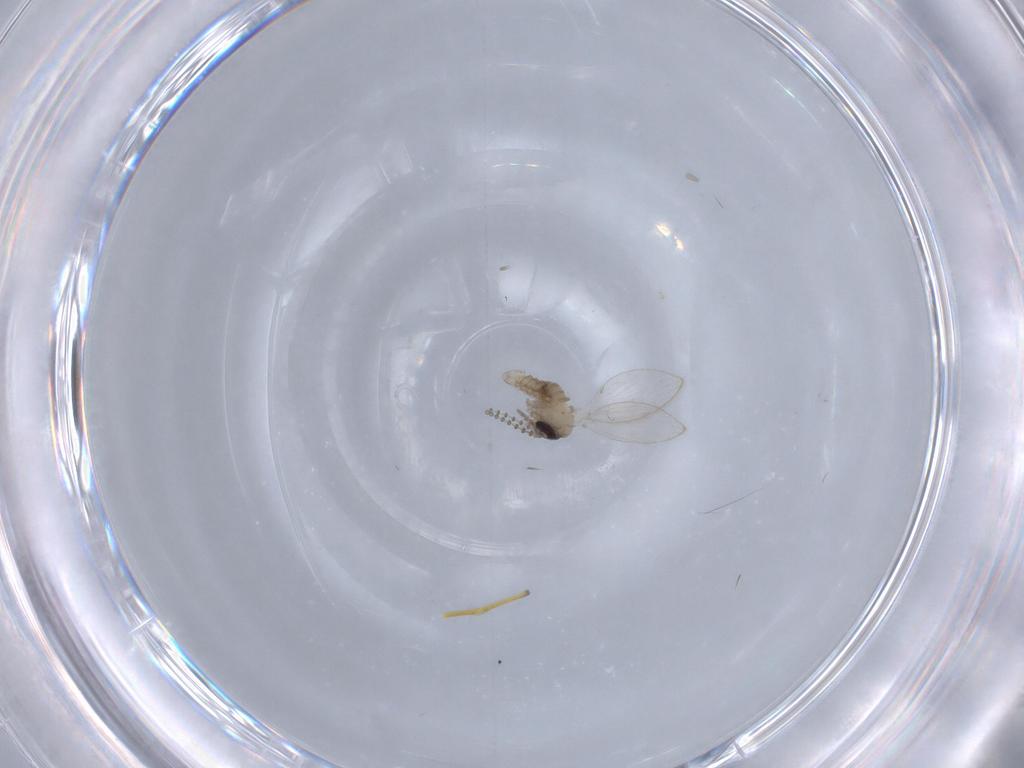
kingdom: Animalia
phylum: Arthropoda
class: Insecta
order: Diptera
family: Psychodidae
